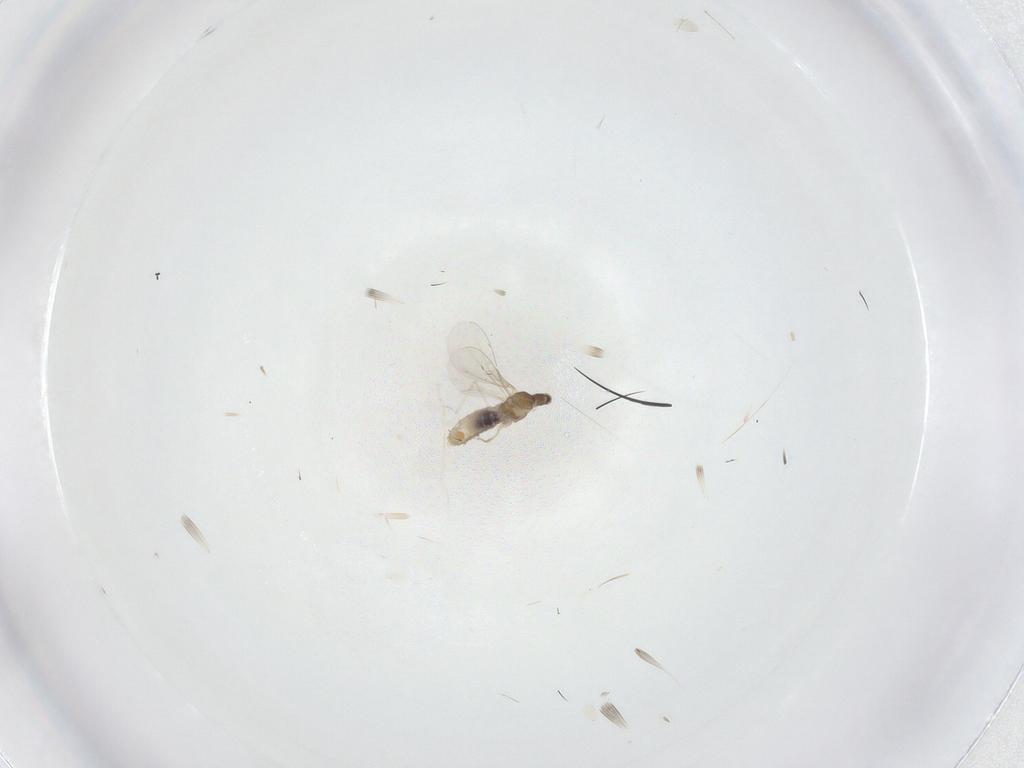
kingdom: Animalia
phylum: Arthropoda
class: Insecta
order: Diptera
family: Cecidomyiidae
